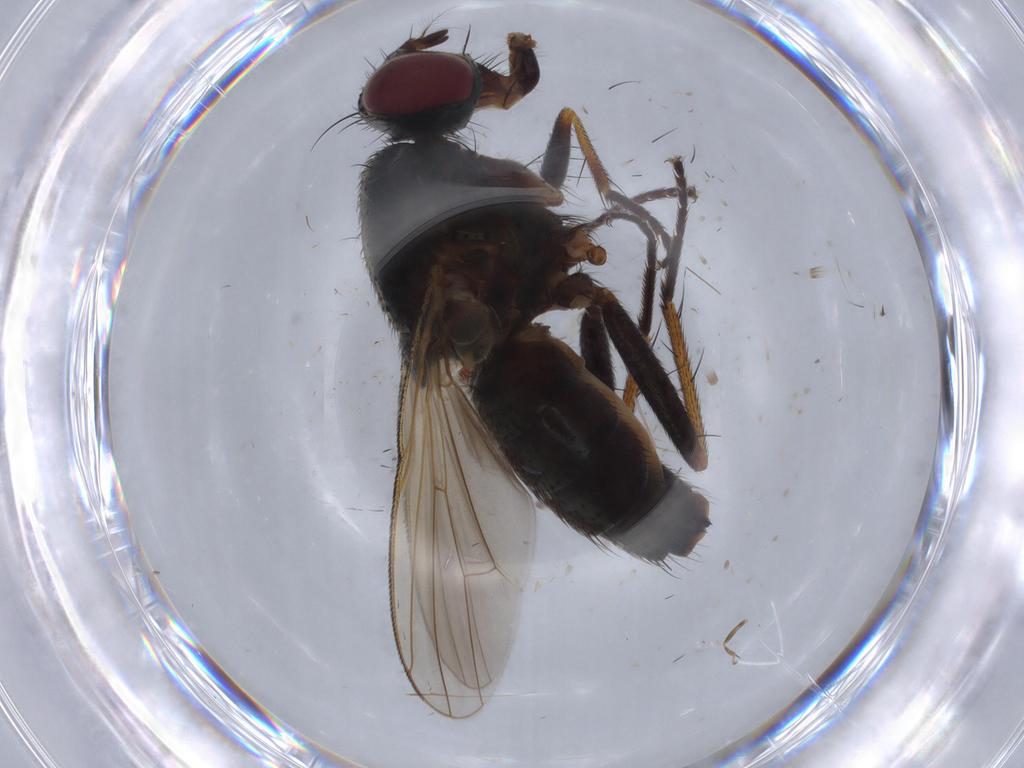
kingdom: Animalia
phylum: Arthropoda
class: Insecta
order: Diptera
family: Muscidae
